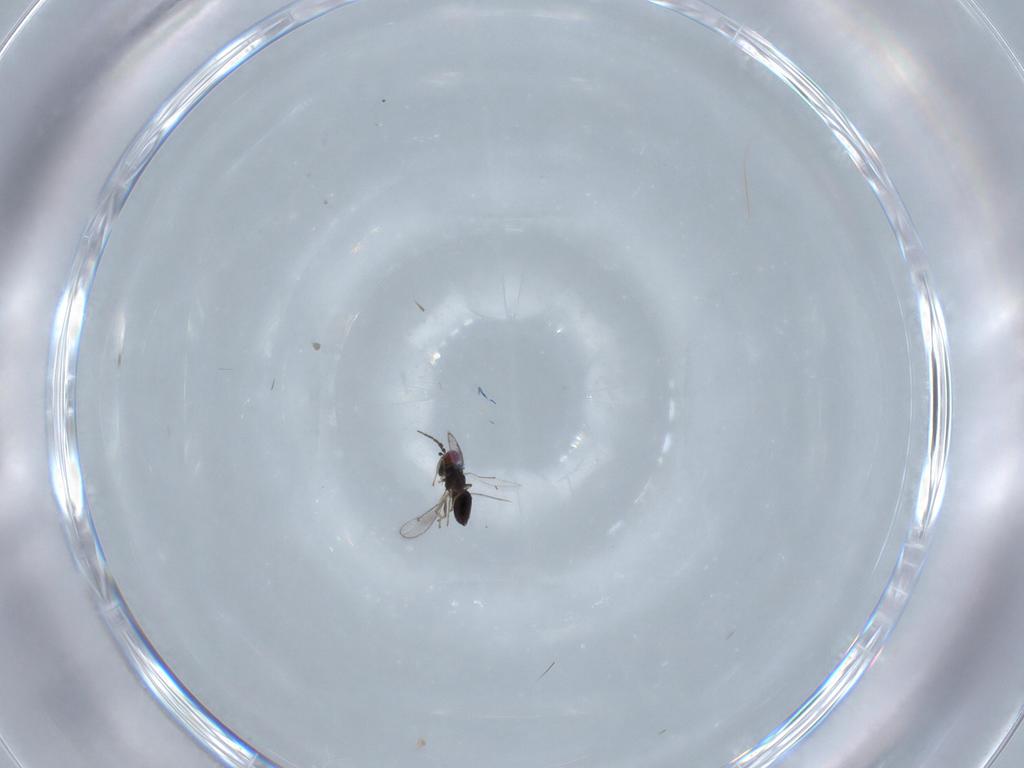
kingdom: Animalia
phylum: Arthropoda
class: Insecta
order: Hymenoptera
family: Eulophidae
